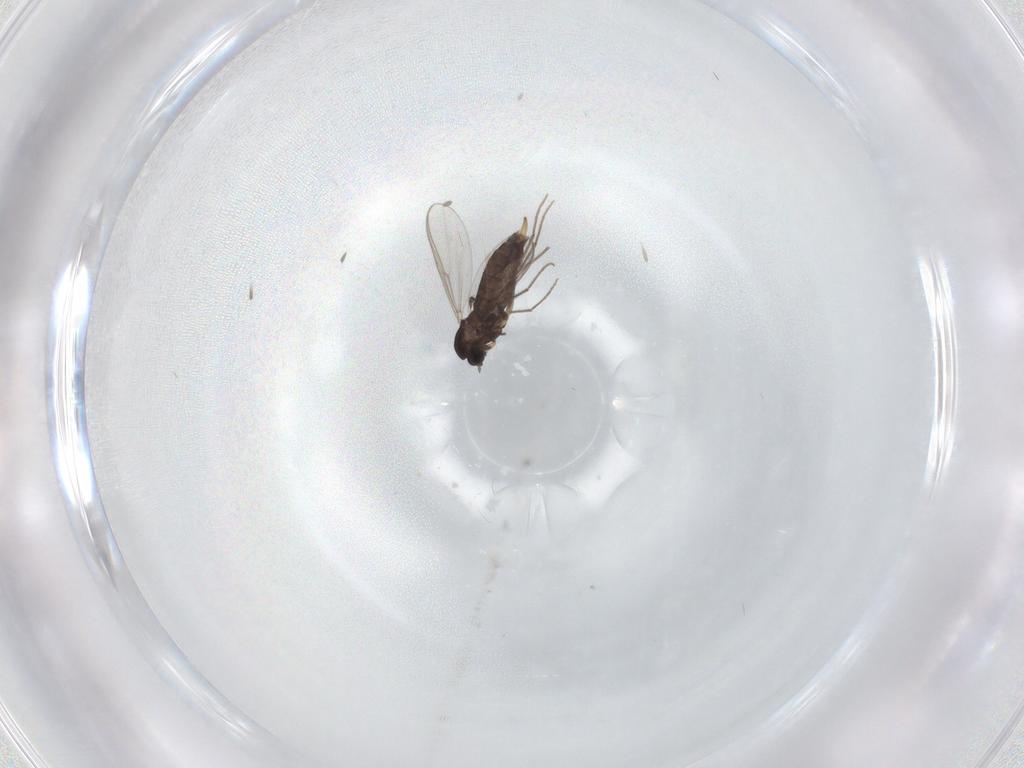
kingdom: Animalia
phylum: Arthropoda
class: Insecta
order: Diptera
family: Chironomidae
